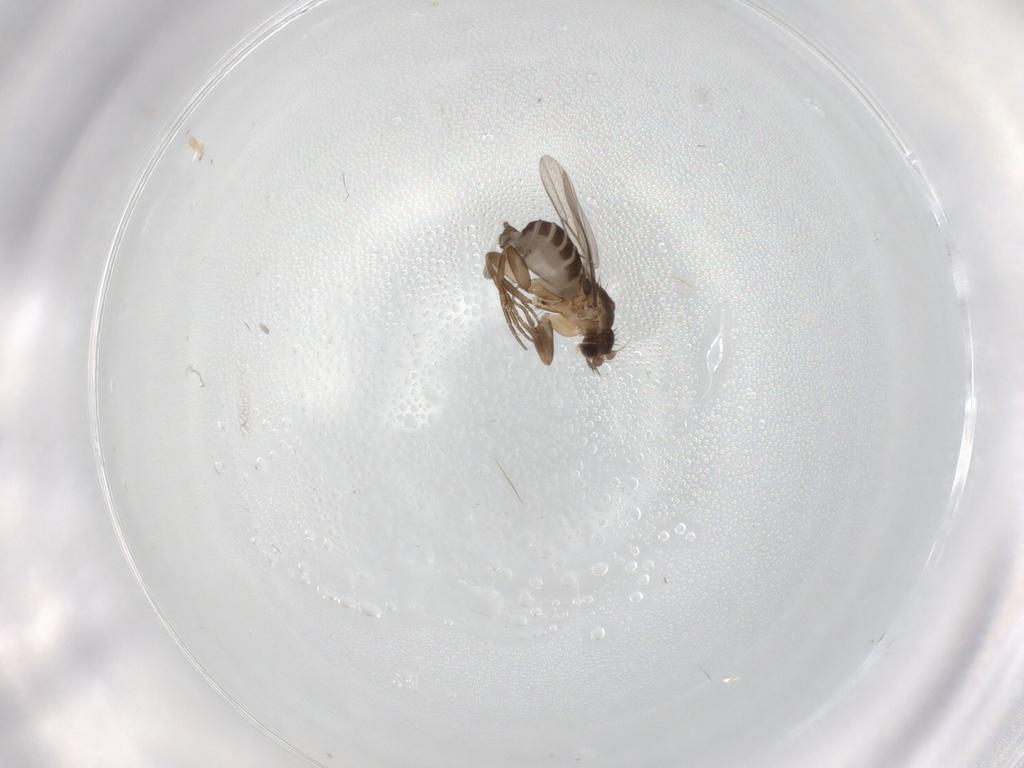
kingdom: Animalia
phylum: Arthropoda
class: Insecta
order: Diptera
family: Phoridae
